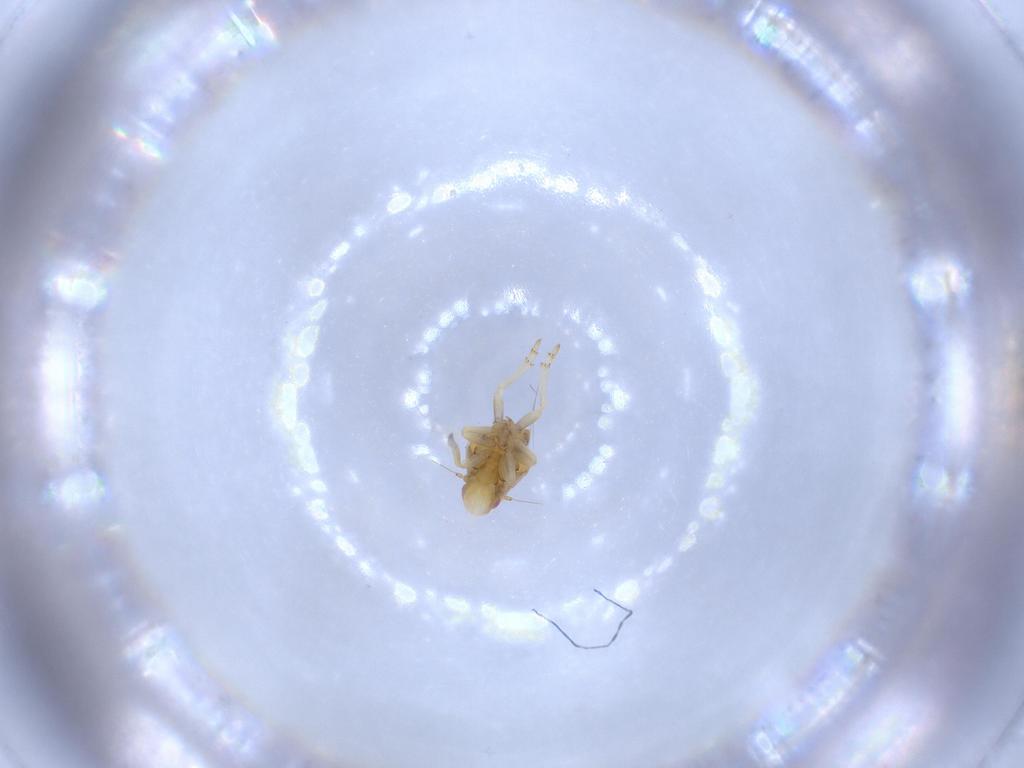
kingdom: Animalia
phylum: Arthropoda
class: Insecta
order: Hemiptera
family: Flatidae
